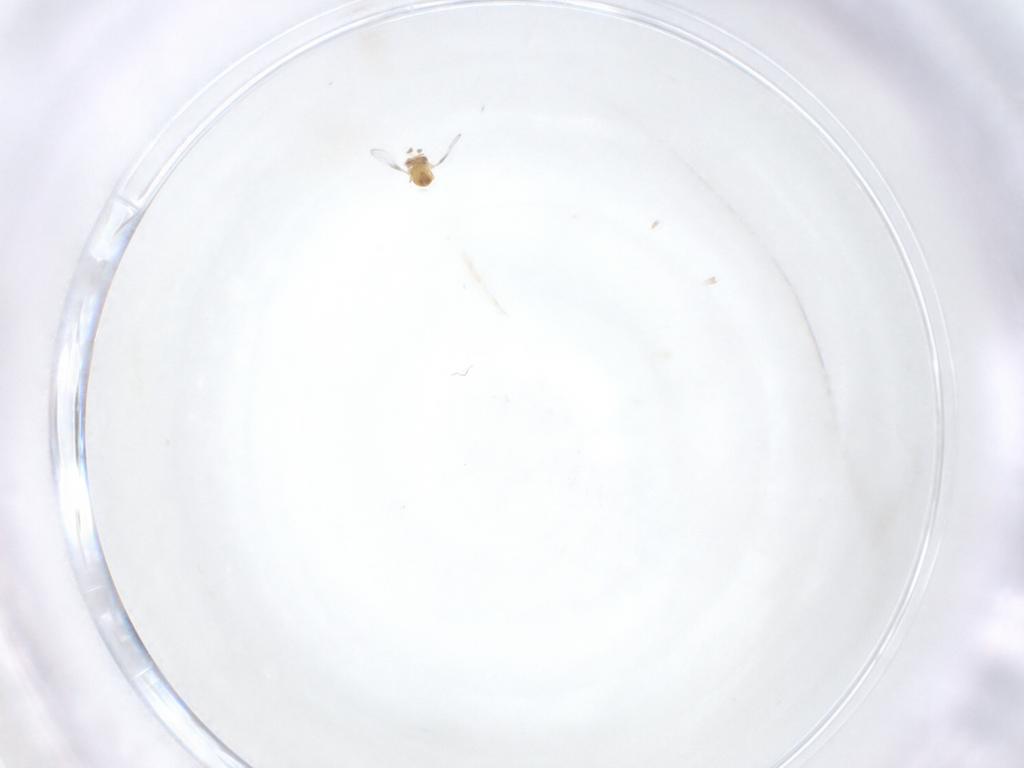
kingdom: Animalia
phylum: Arthropoda
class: Insecta
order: Hymenoptera
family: Trichogrammatidae
